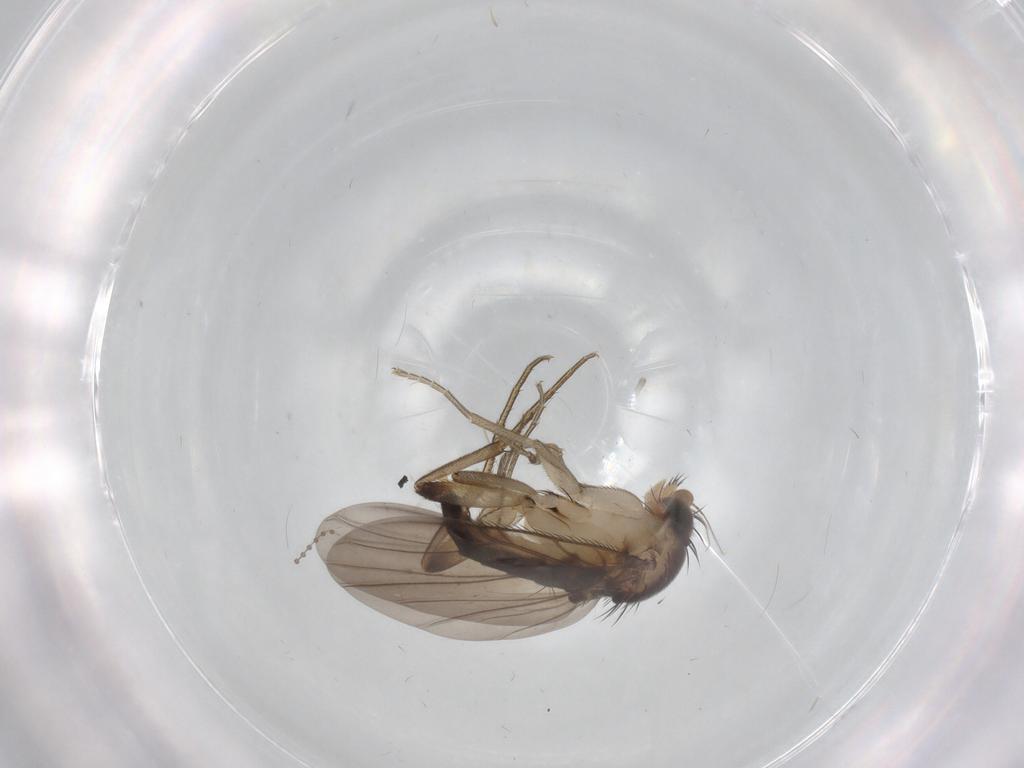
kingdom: Animalia
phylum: Arthropoda
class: Insecta
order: Diptera
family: Phoridae
